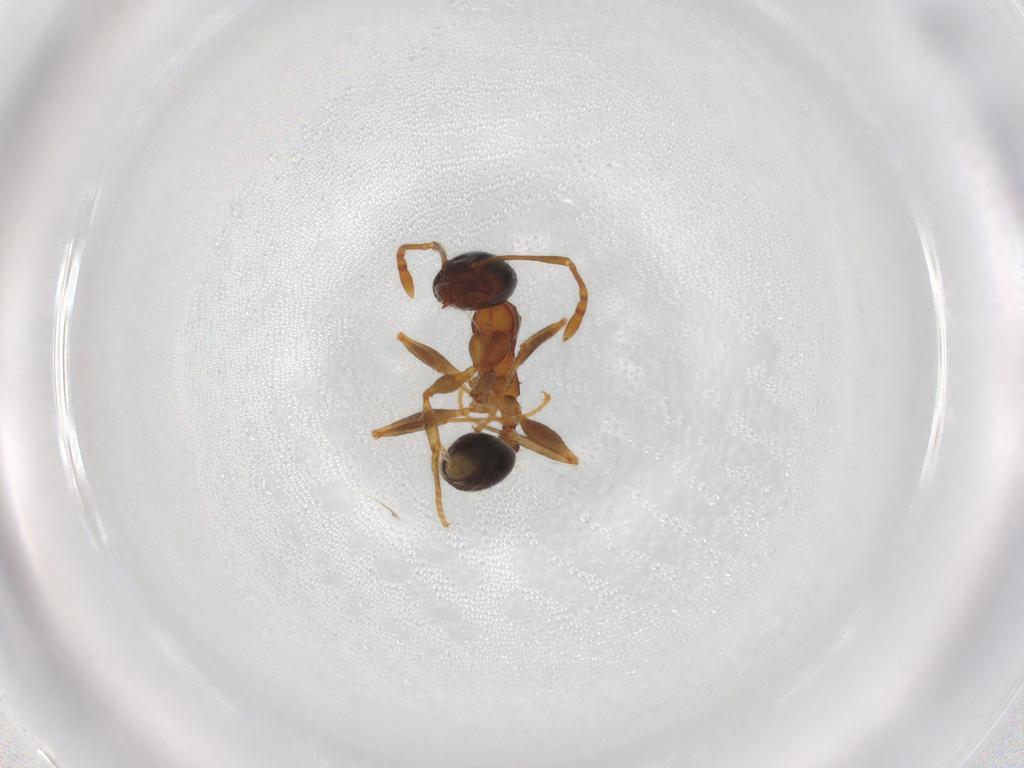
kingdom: Animalia
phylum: Arthropoda
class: Insecta
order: Hymenoptera
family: Formicidae
